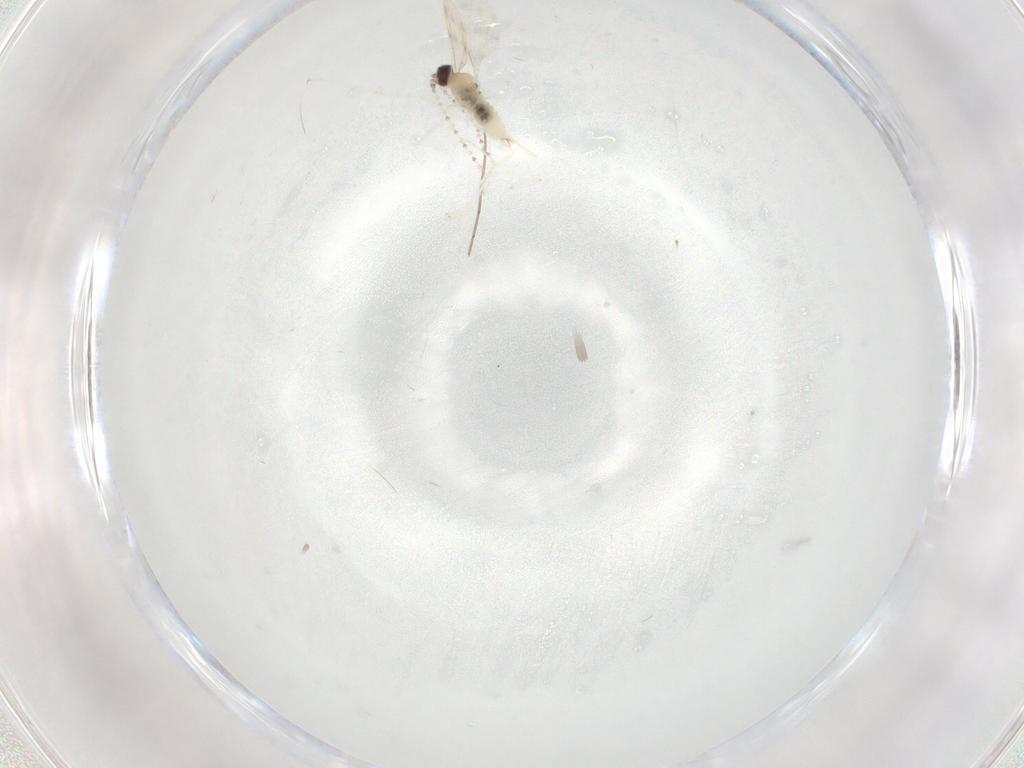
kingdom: Animalia
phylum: Arthropoda
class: Insecta
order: Diptera
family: Cecidomyiidae
